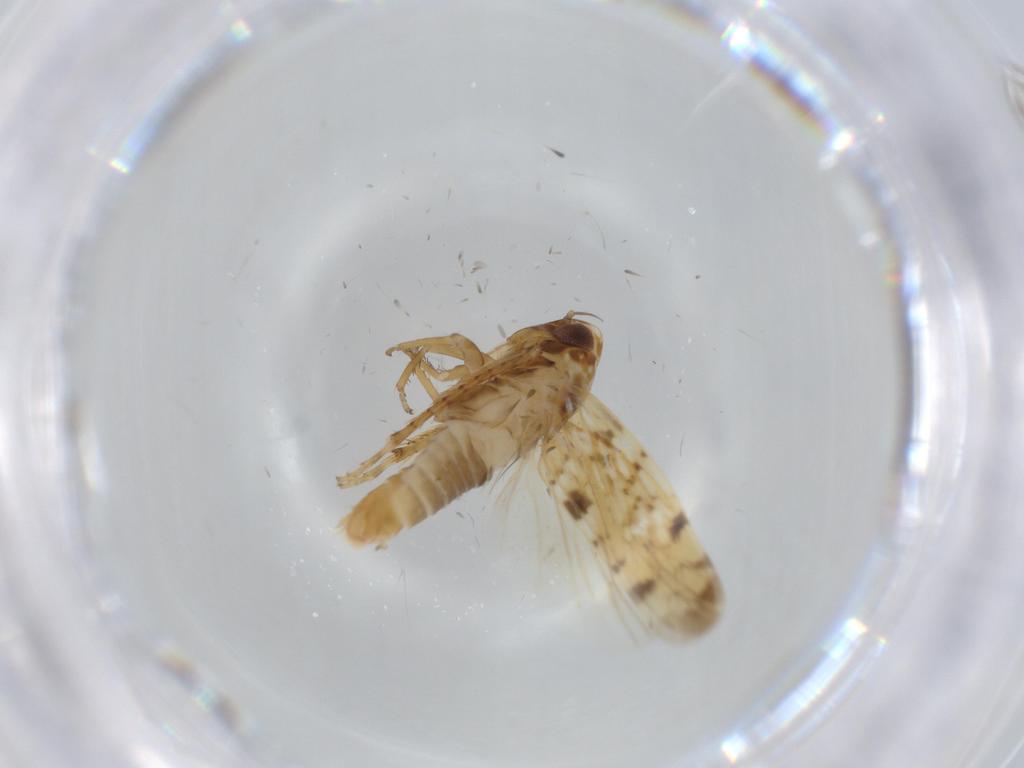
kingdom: Animalia
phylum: Arthropoda
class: Insecta
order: Hemiptera
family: Cicadellidae
